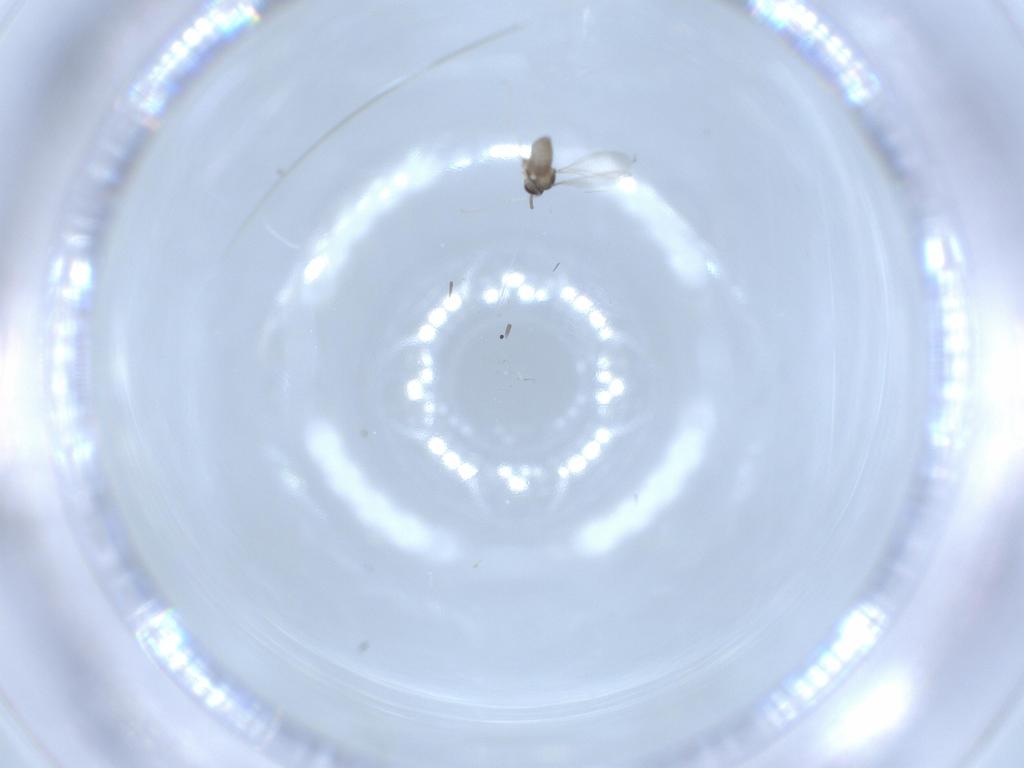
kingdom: Animalia
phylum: Arthropoda
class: Insecta
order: Diptera
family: Cecidomyiidae
